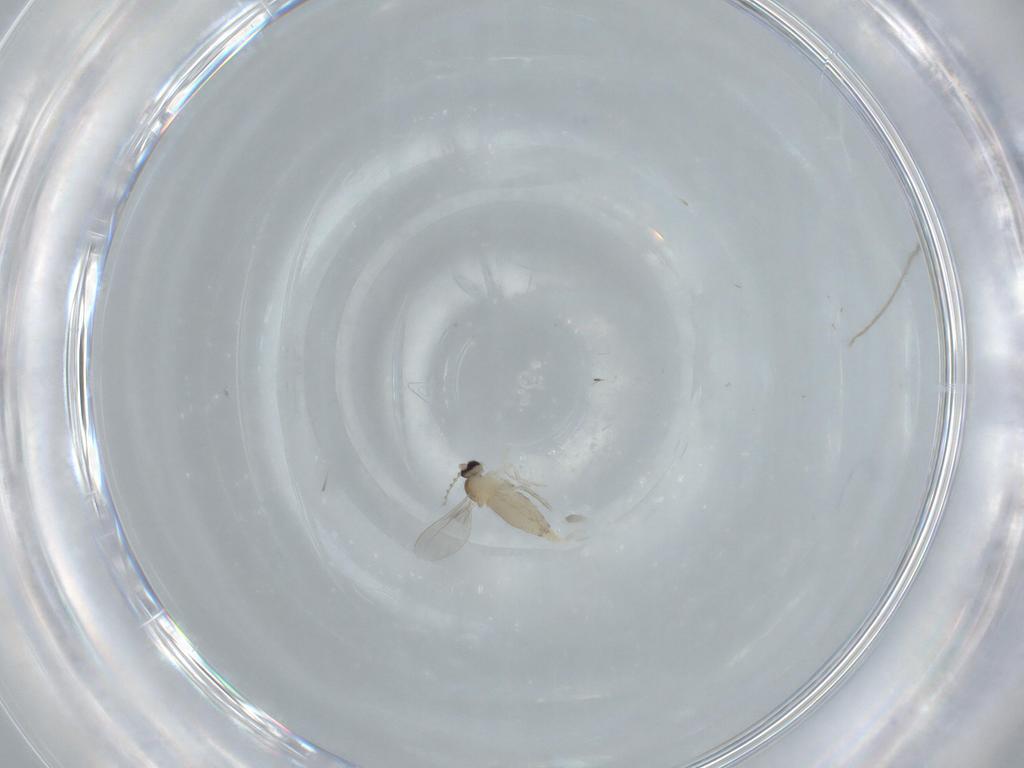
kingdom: Animalia
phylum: Arthropoda
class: Insecta
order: Diptera
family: Cecidomyiidae
